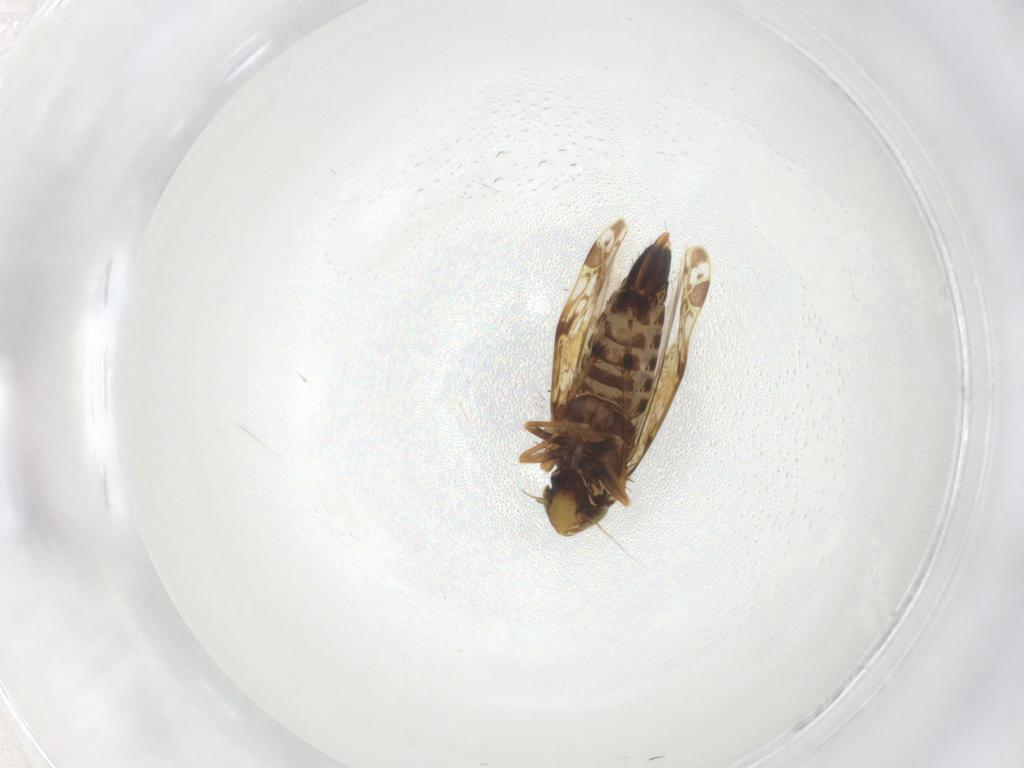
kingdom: Animalia
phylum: Arthropoda
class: Insecta
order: Hemiptera
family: Cicadellidae
